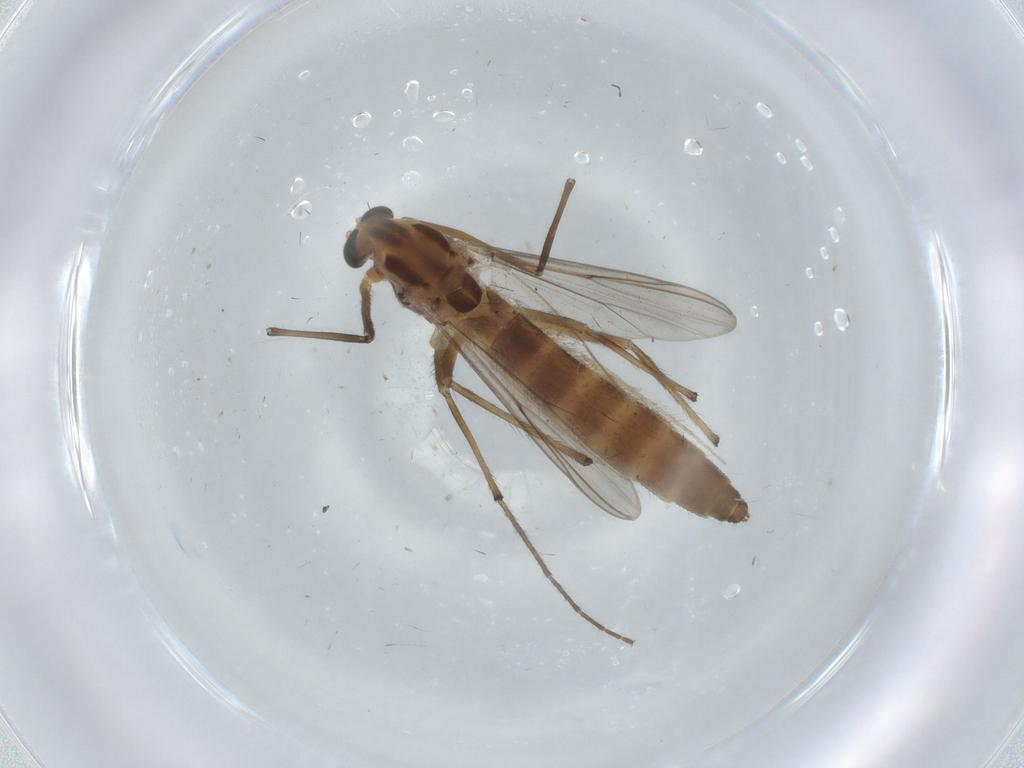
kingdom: Animalia
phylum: Arthropoda
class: Insecta
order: Diptera
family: Chironomidae
